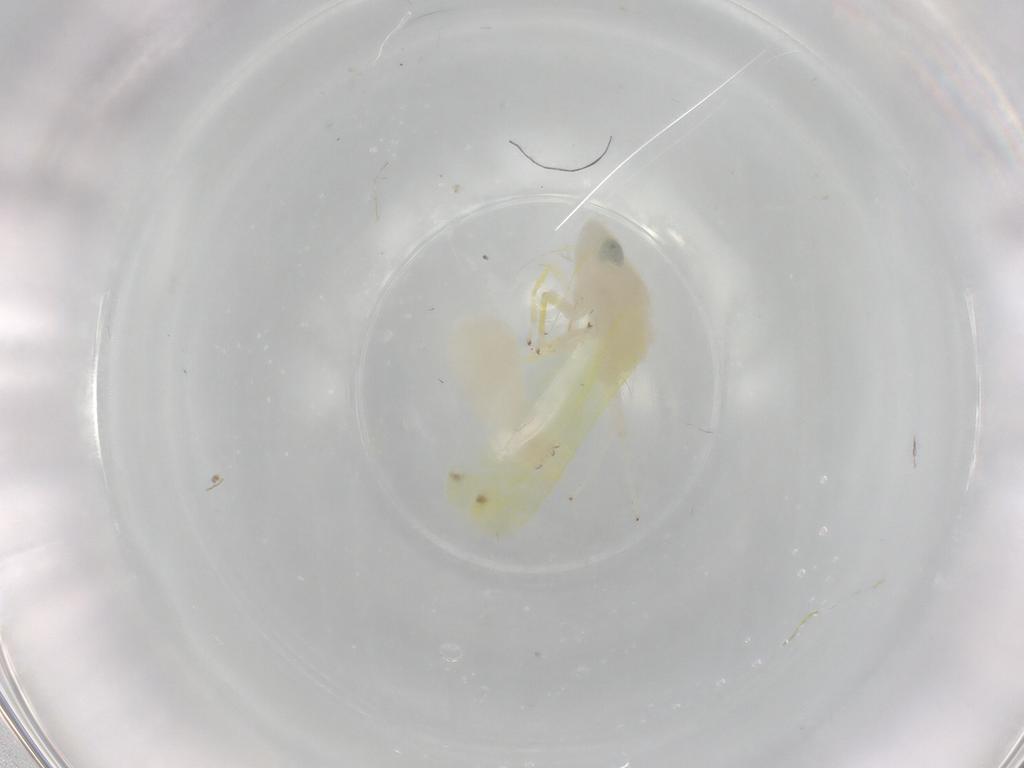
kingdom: Animalia
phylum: Arthropoda
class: Insecta
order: Hemiptera
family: Cicadellidae
